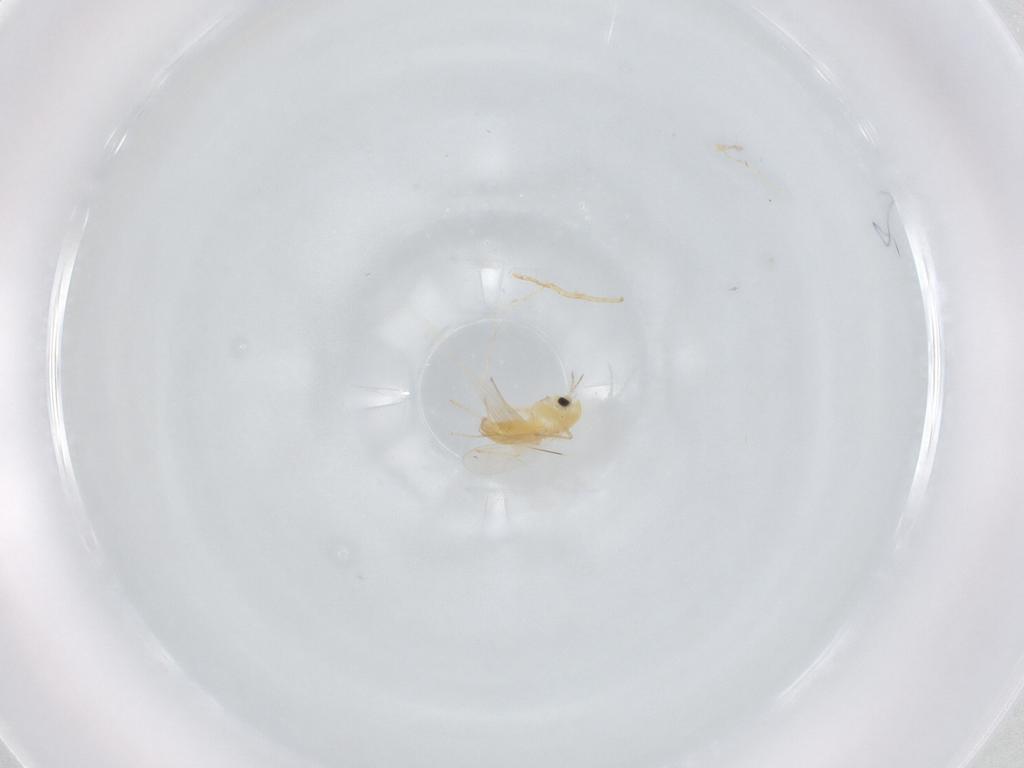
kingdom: Animalia
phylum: Arthropoda
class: Insecta
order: Diptera
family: Chironomidae
